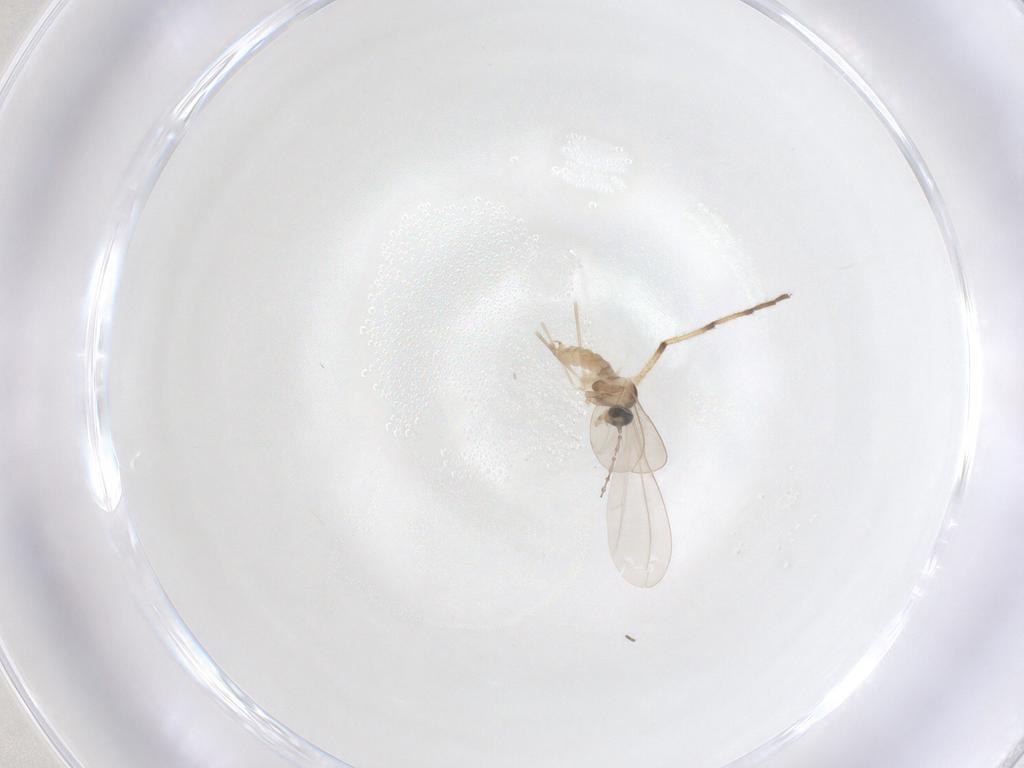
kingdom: Animalia
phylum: Arthropoda
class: Insecta
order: Diptera
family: Cecidomyiidae
